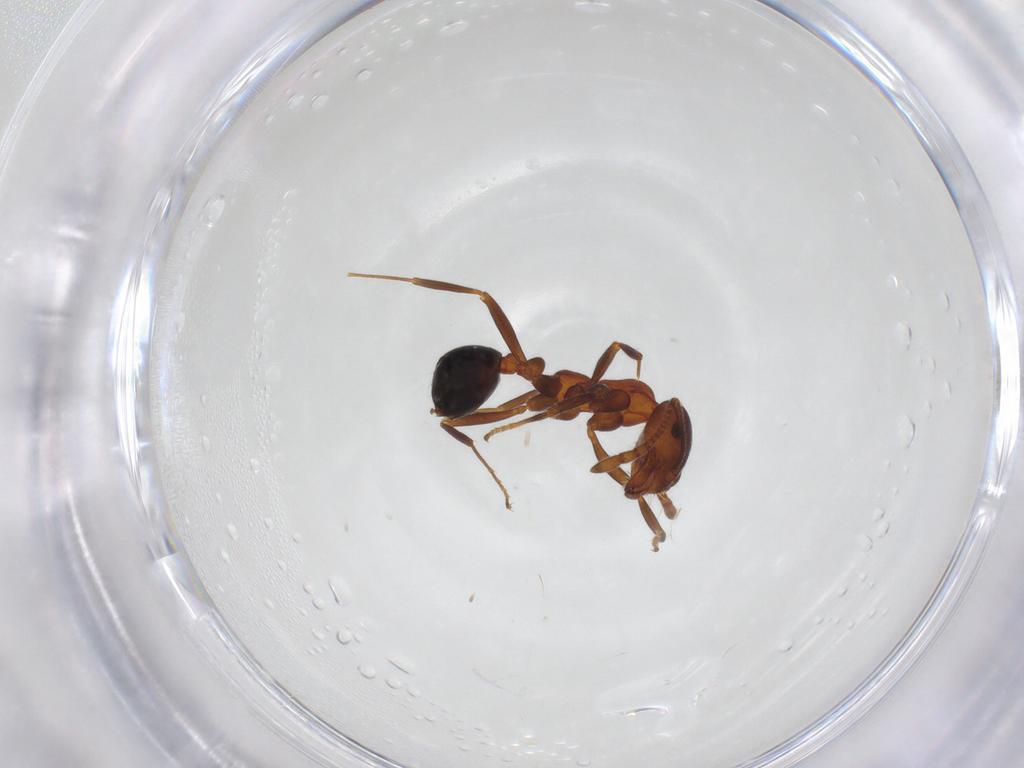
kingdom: Animalia
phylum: Arthropoda
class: Insecta
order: Hymenoptera
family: Formicidae
